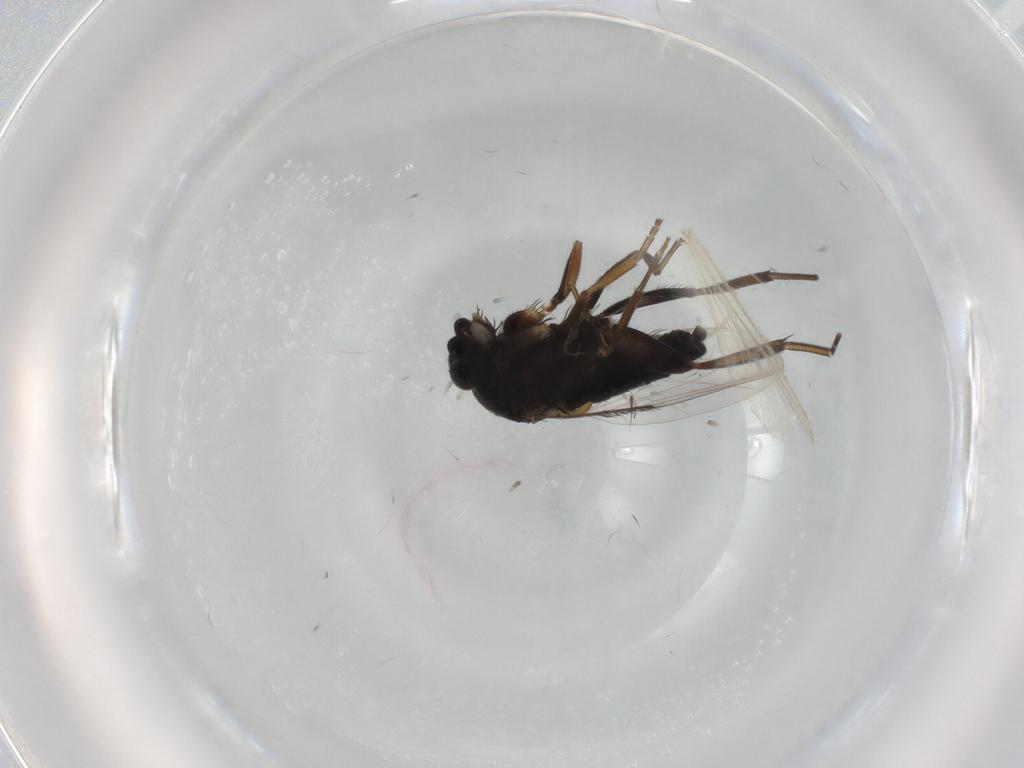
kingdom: Animalia
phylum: Arthropoda
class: Insecta
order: Diptera
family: Phoridae
